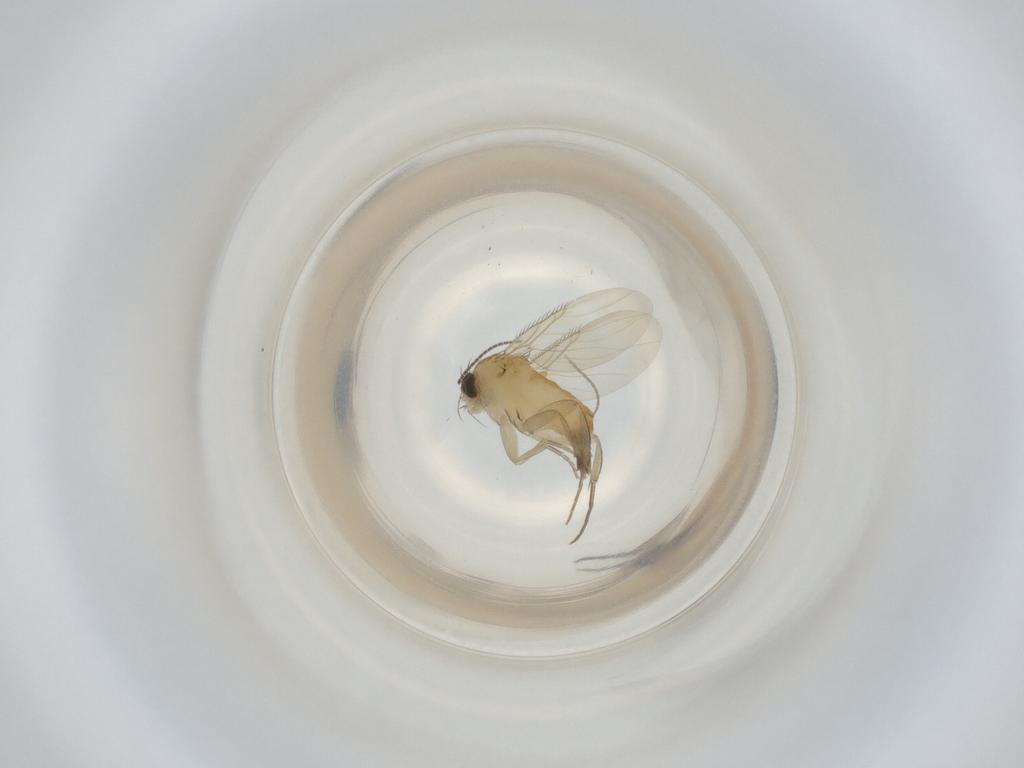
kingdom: Animalia
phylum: Arthropoda
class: Insecta
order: Diptera
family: Phoridae
